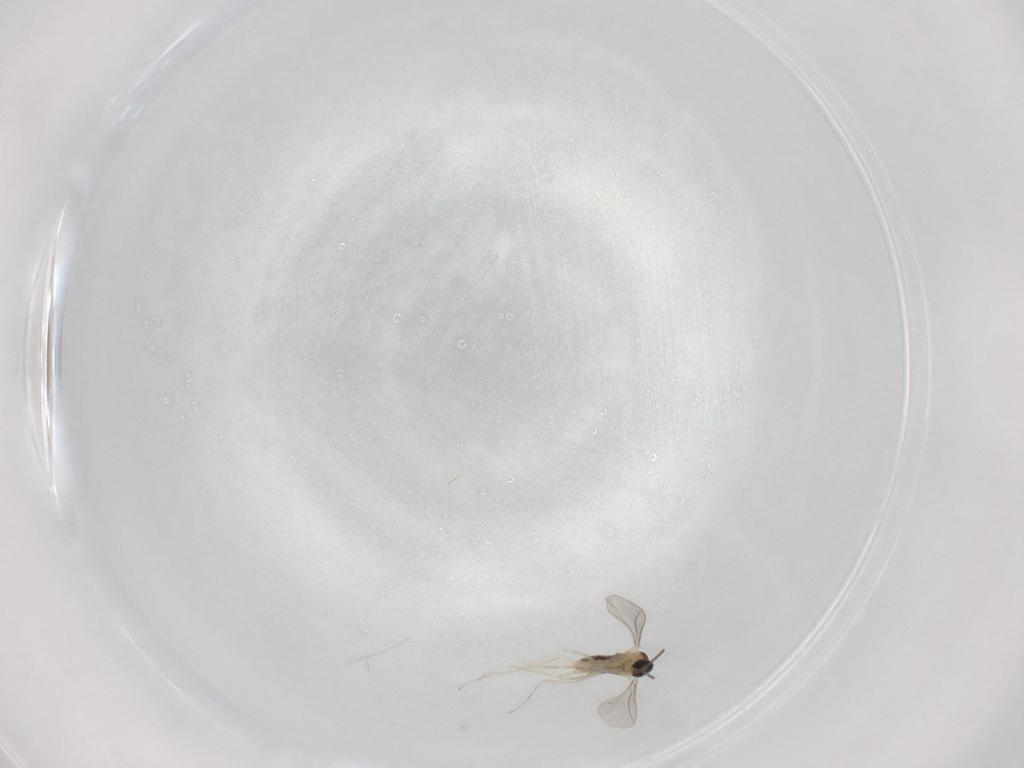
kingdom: Animalia
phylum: Arthropoda
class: Insecta
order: Diptera
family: Cecidomyiidae
